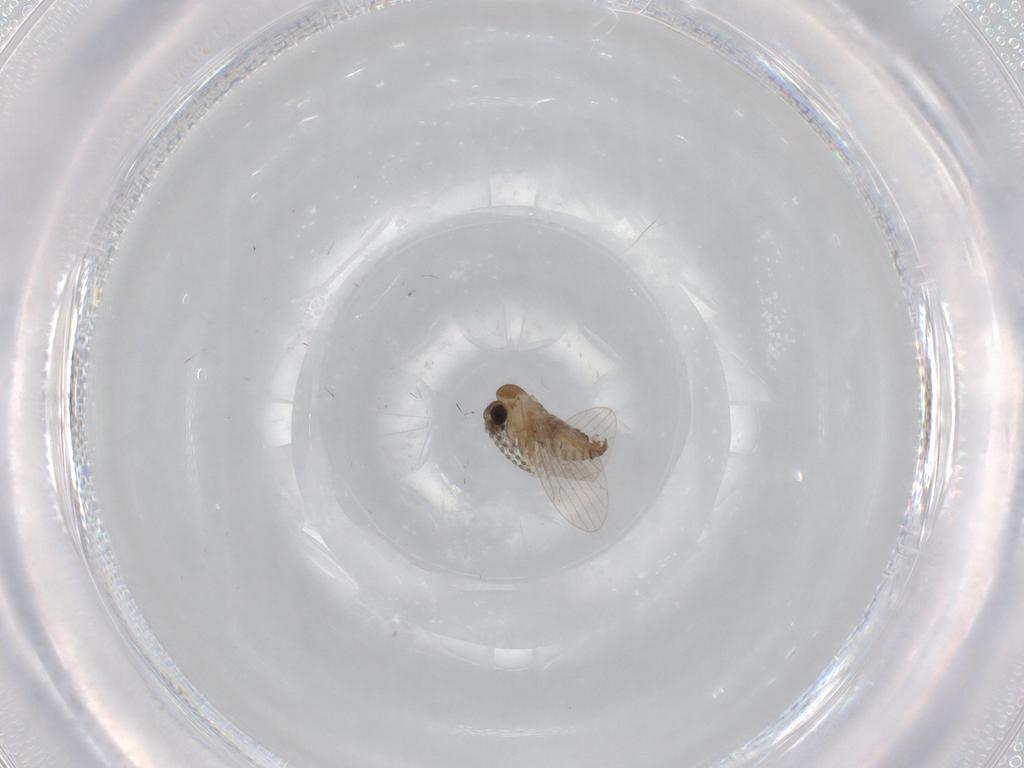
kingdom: Animalia
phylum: Arthropoda
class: Insecta
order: Diptera
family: Psychodidae
